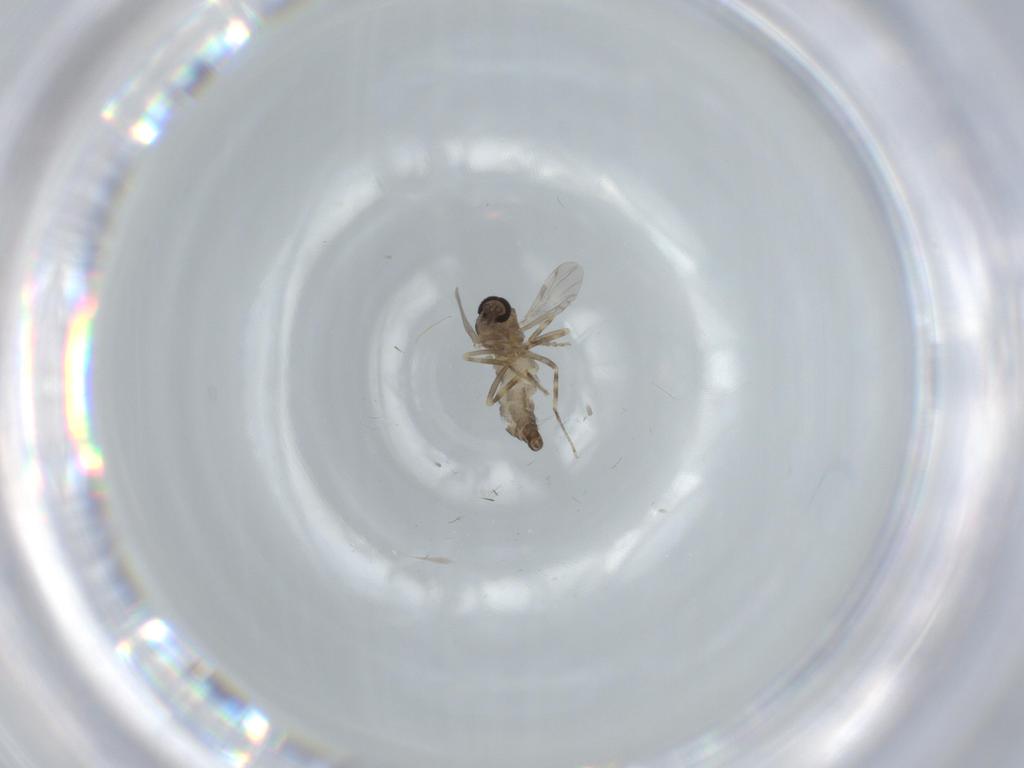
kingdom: Animalia
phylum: Arthropoda
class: Insecta
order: Diptera
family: Ceratopogonidae
